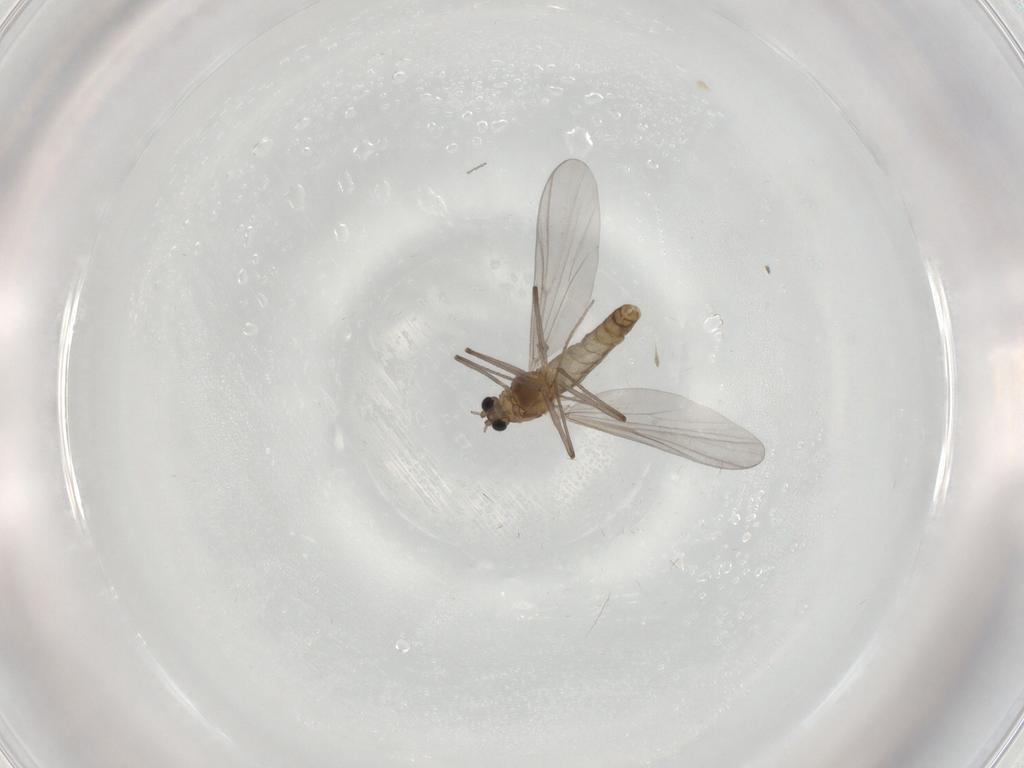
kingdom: Animalia
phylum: Arthropoda
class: Insecta
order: Diptera
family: Chironomidae
